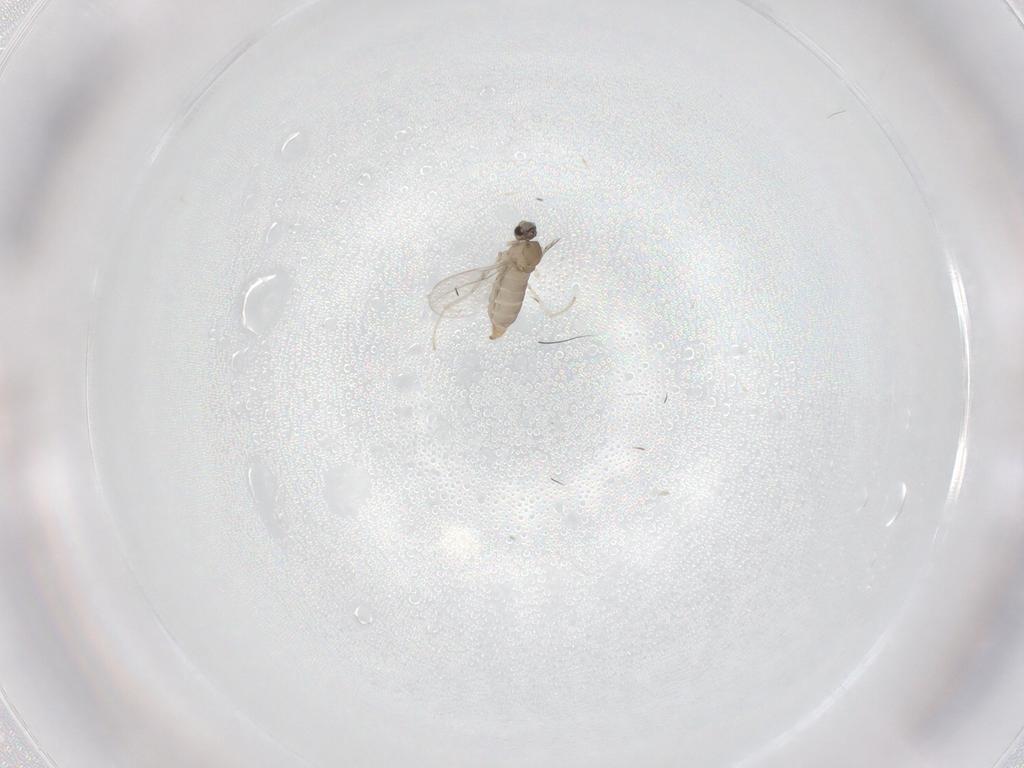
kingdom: Animalia
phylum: Arthropoda
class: Insecta
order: Diptera
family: Cecidomyiidae
